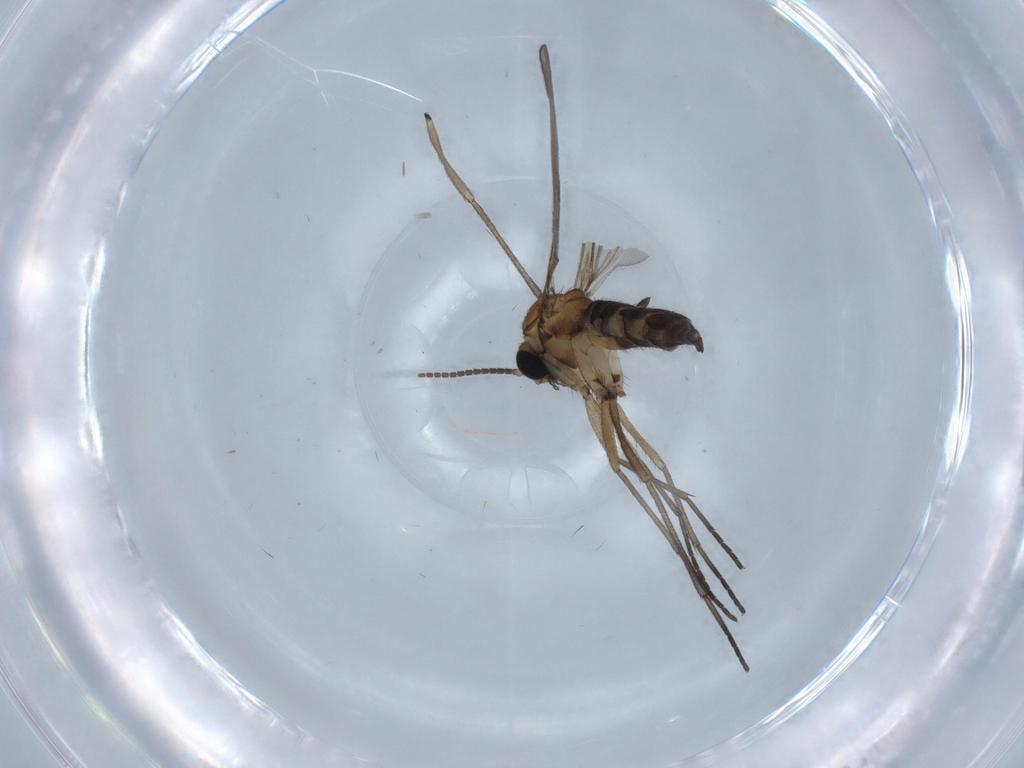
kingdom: Animalia
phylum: Arthropoda
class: Insecta
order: Diptera
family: Sciaridae
